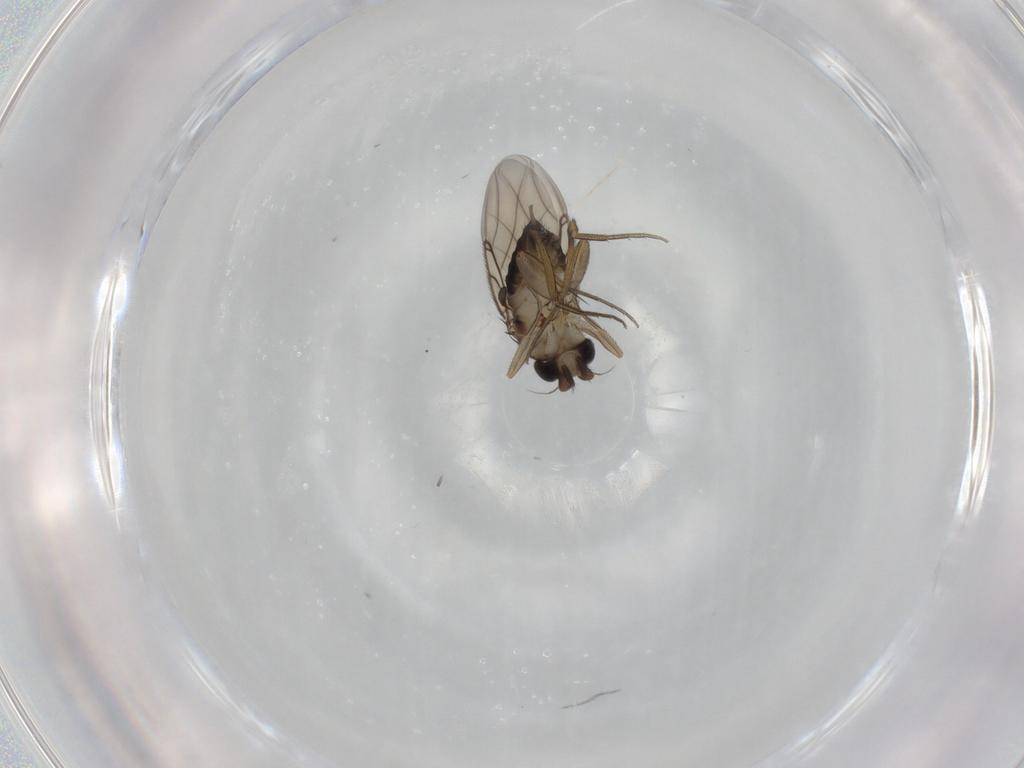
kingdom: Animalia
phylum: Arthropoda
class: Insecta
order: Diptera
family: Phoridae
